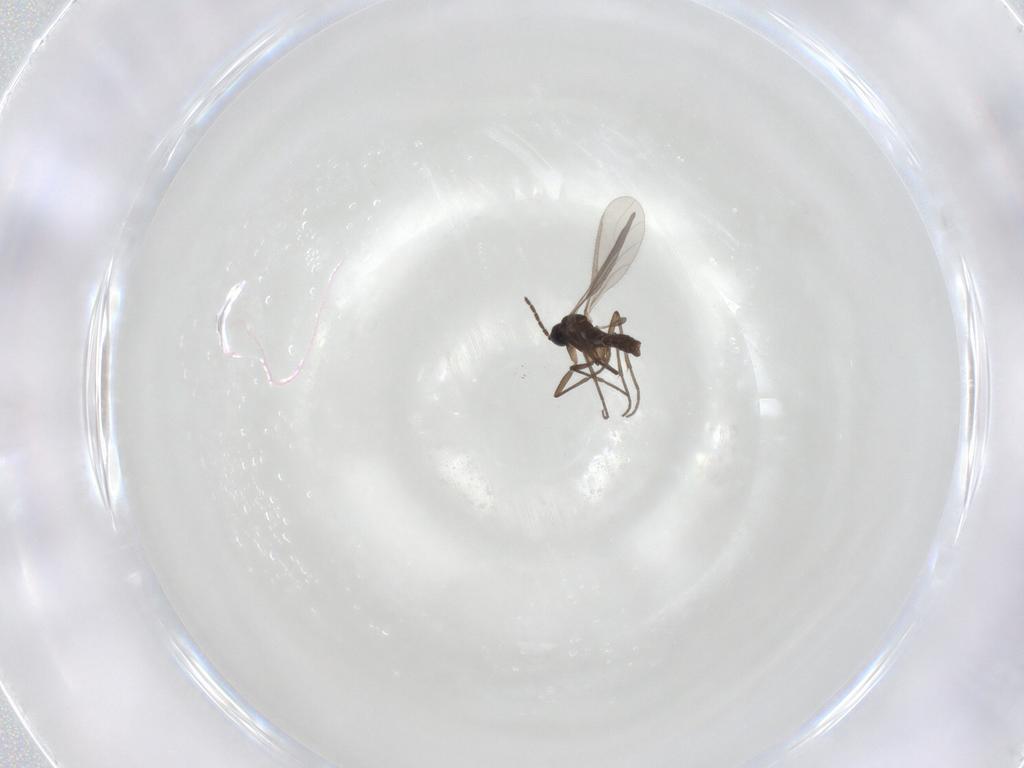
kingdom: Animalia
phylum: Arthropoda
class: Insecta
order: Diptera
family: Sciaridae
